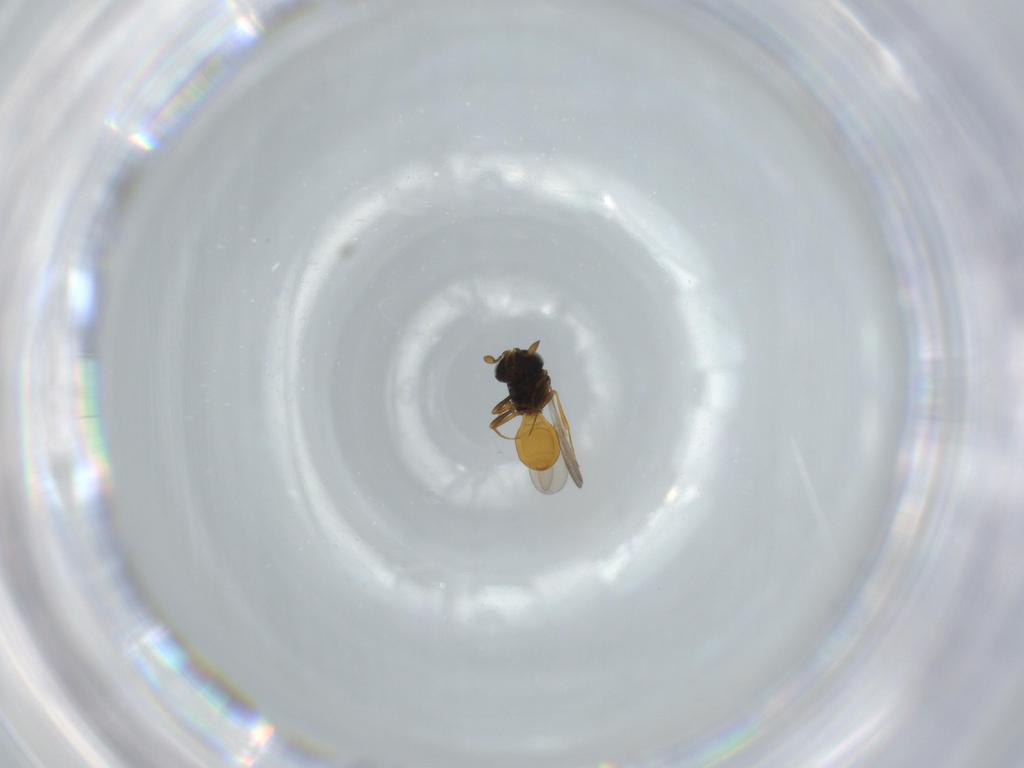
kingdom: Animalia
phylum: Arthropoda
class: Insecta
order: Hymenoptera
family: Scelionidae
